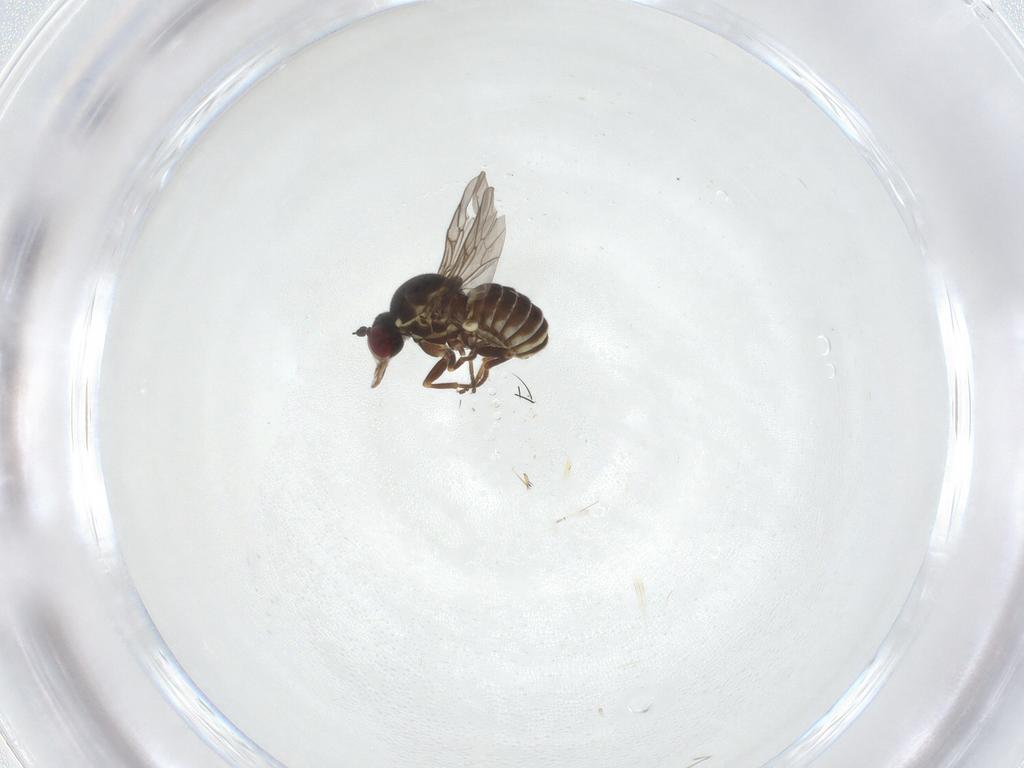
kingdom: Animalia
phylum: Arthropoda
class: Insecta
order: Diptera
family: Bombyliidae
